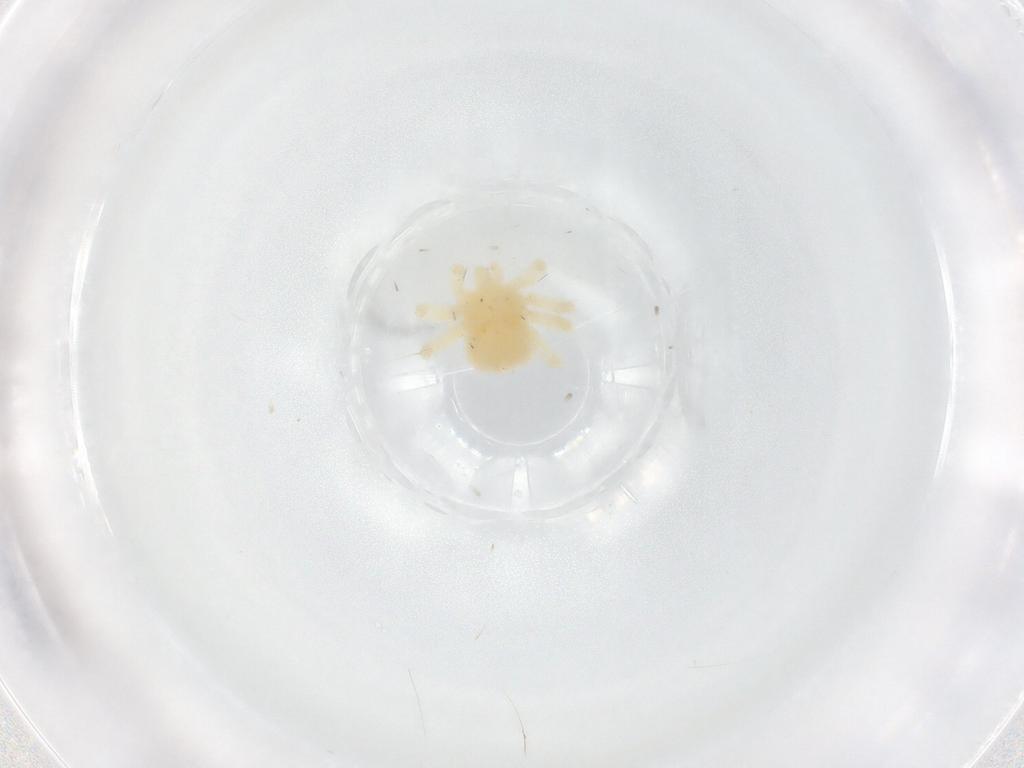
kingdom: Animalia
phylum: Arthropoda
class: Arachnida
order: Trombidiformes
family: Anystidae
